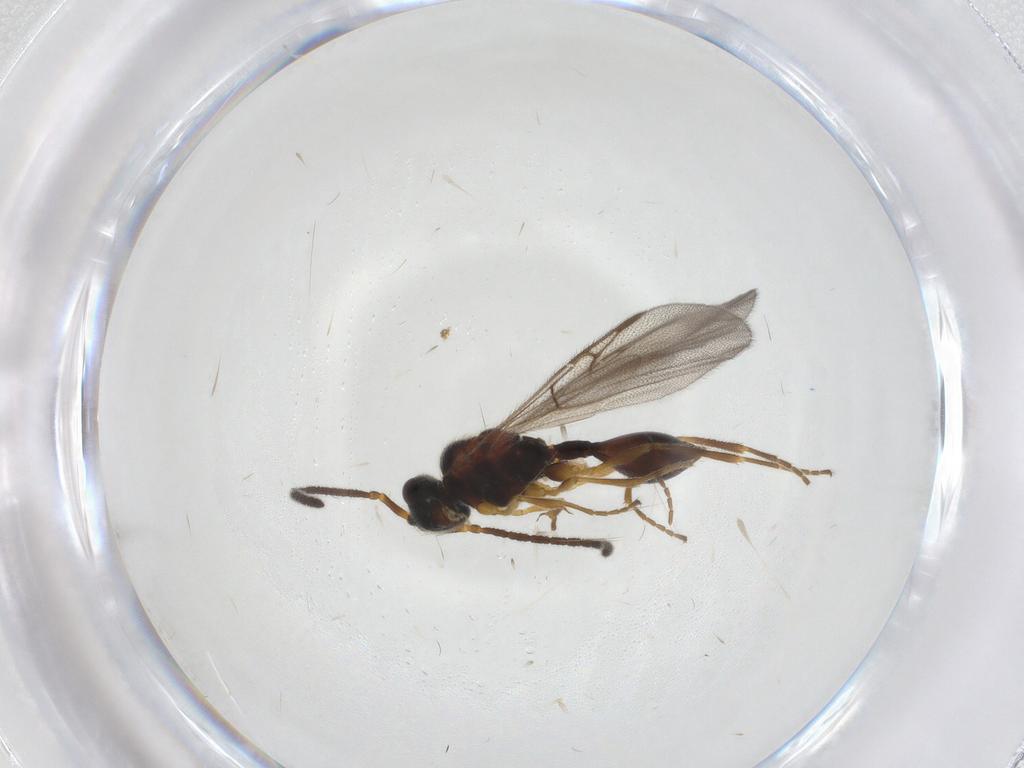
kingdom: Animalia
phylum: Arthropoda
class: Insecta
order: Hymenoptera
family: Diapriidae
